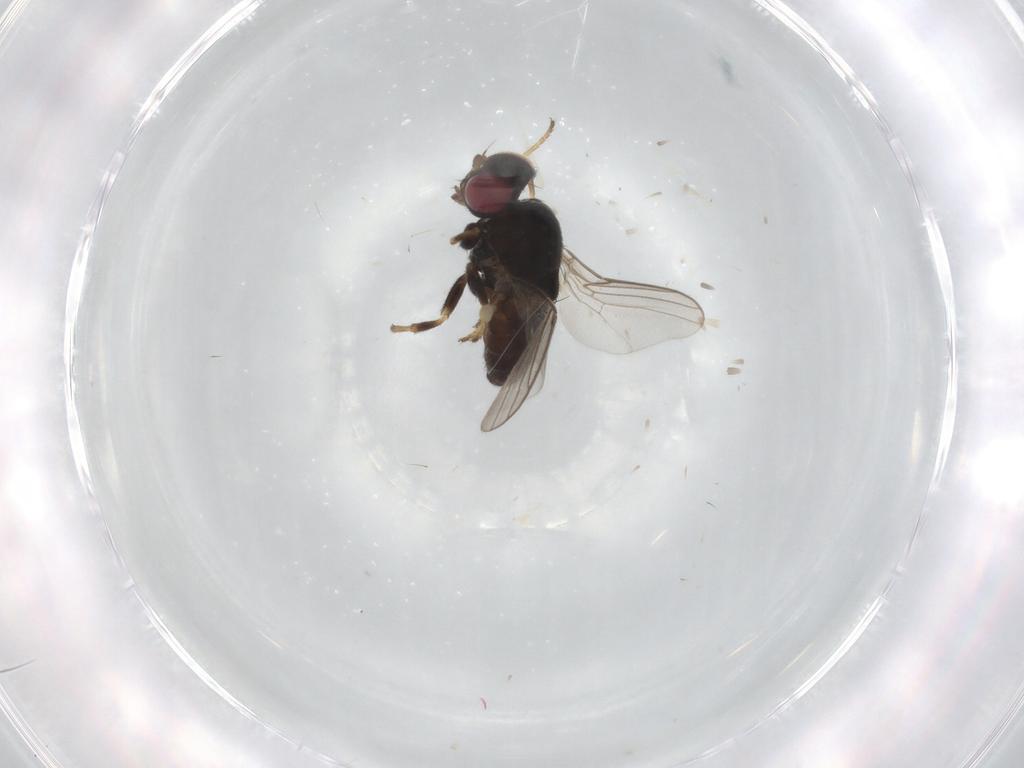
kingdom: Animalia
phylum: Arthropoda
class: Insecta
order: Diptera
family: Chloropidae
